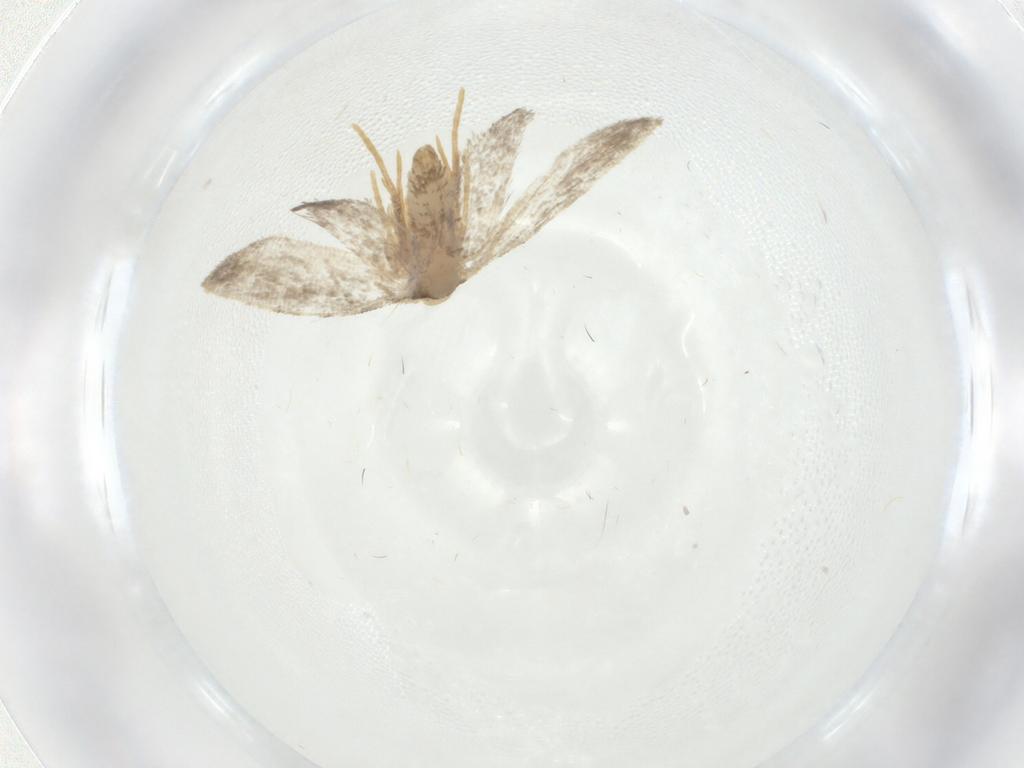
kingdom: Animalia
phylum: Arthropoda
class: Insecta
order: Lepidoptera
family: Psychidae
